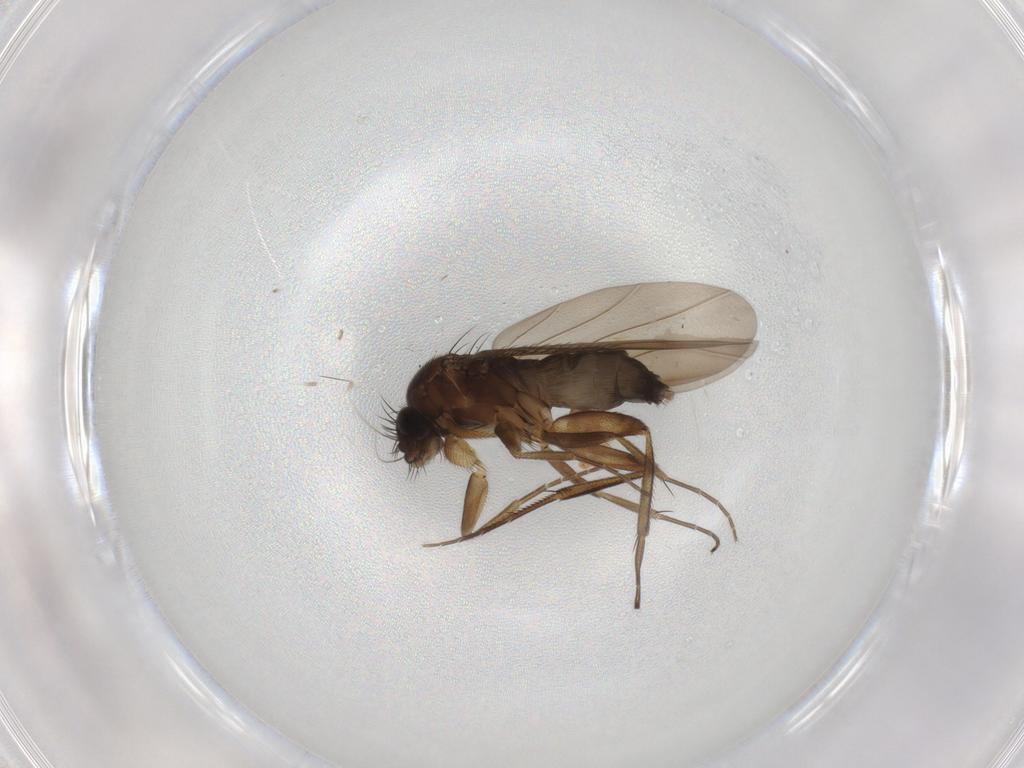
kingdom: Animalia
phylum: Arthropoda
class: Insecta
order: Diptera
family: Phoridae
